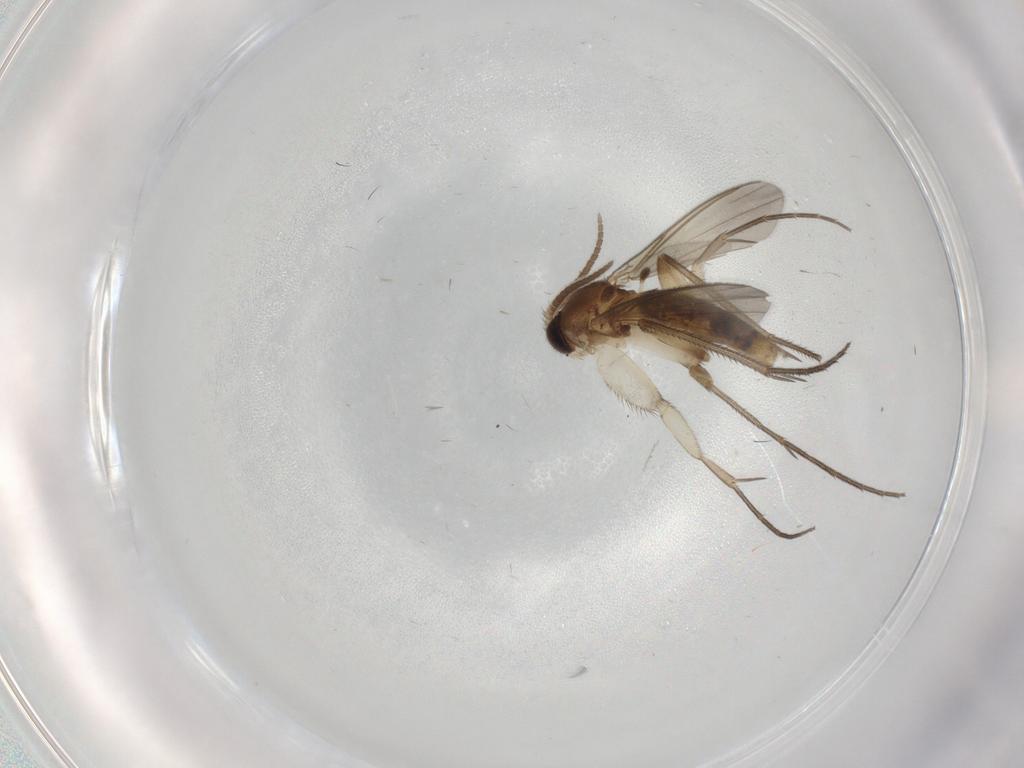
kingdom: Animalia
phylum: Arthropoda
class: Insecta
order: Diptera
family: Mycetophilidae
